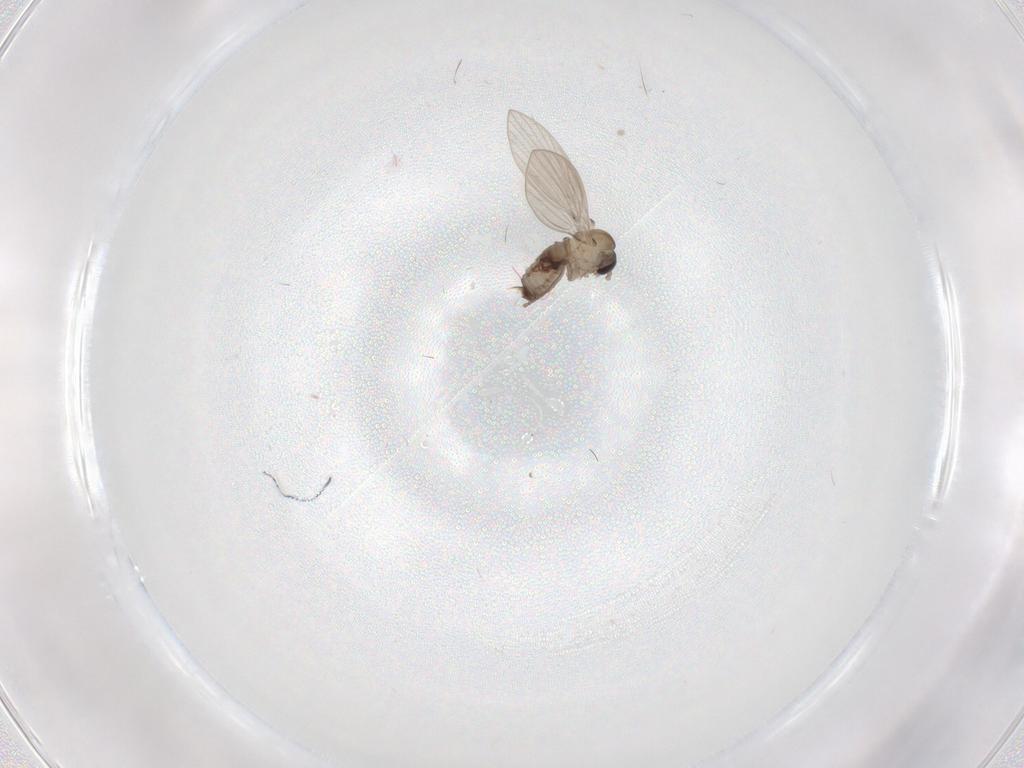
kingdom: Animalia
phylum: Arthropoda
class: Insecta
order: Diptera
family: Psychodidae
